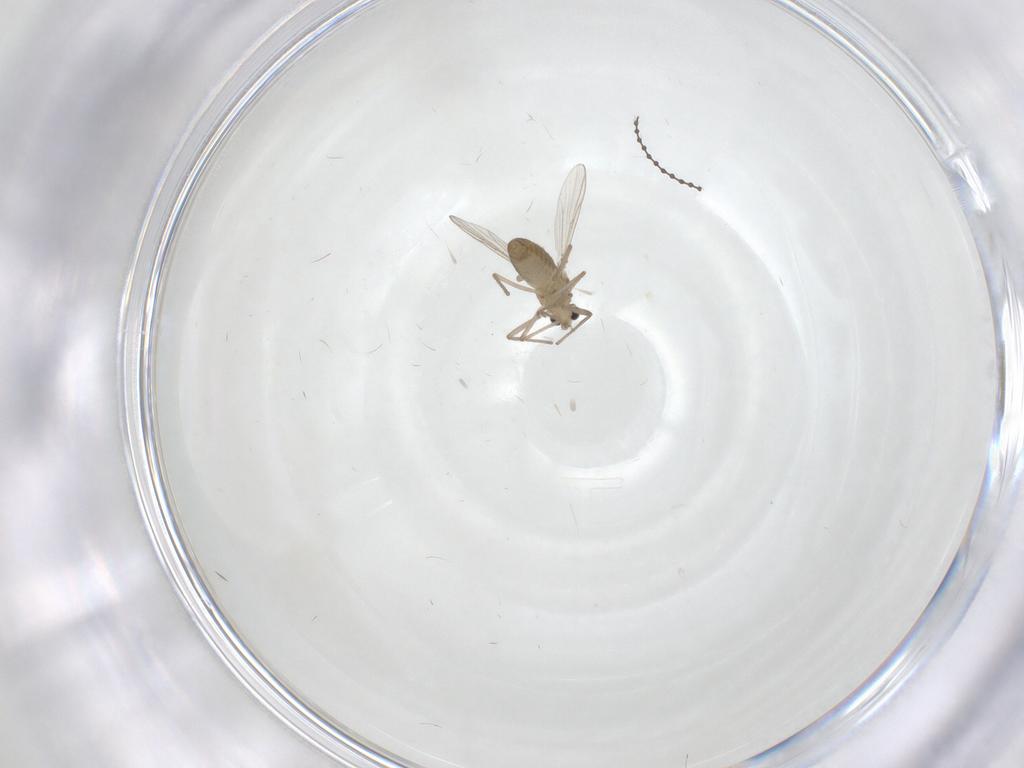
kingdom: Animalia
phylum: Arthropoda
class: Insecta
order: Diptera
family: Chironomidae
